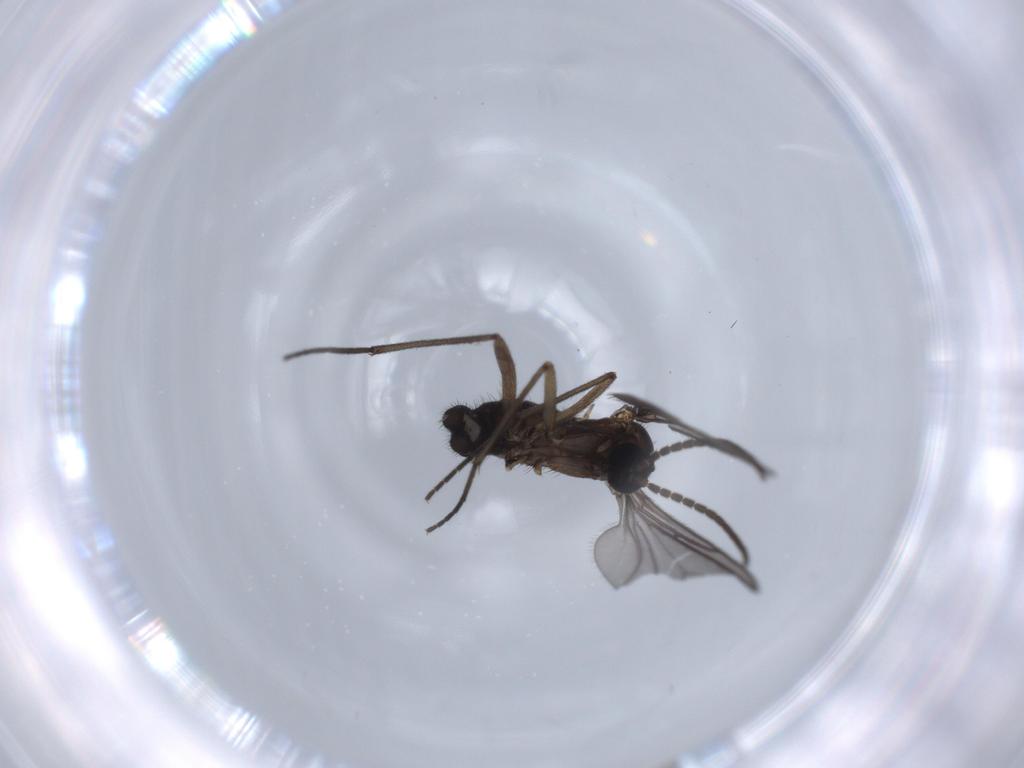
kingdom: Animalia
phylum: Arthropoda
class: Insecta
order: Diptera
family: Sciaridae
